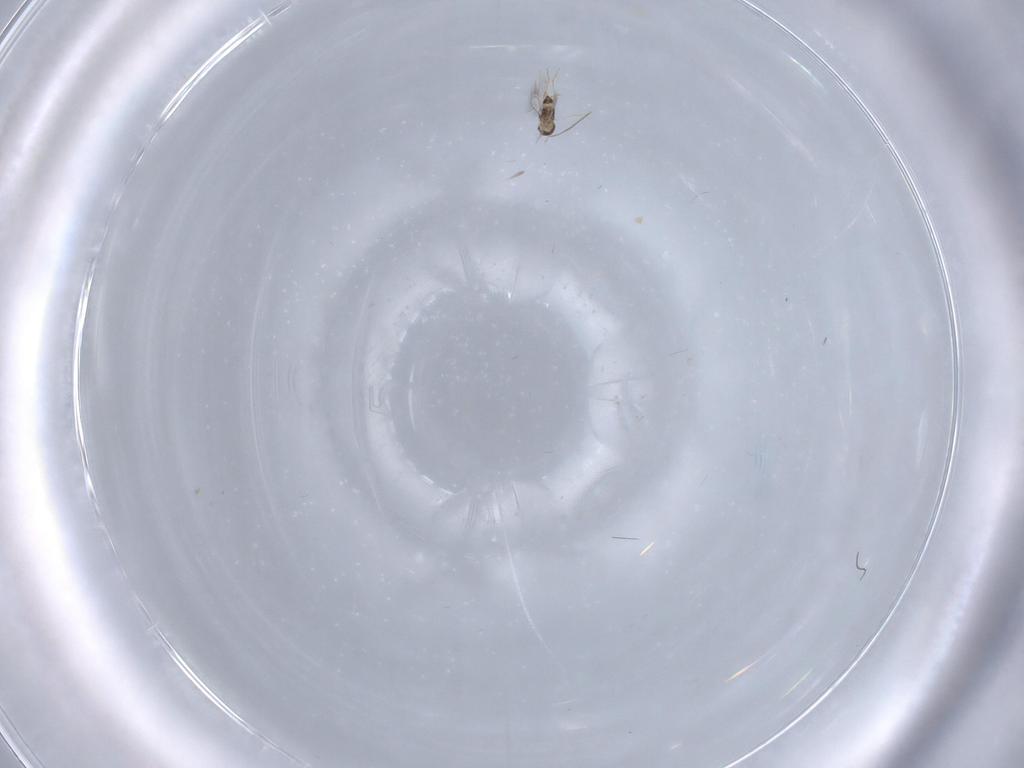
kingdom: Animalia
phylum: Arthropoda
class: Insecta
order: Hymenoptera
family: Mymaridae
